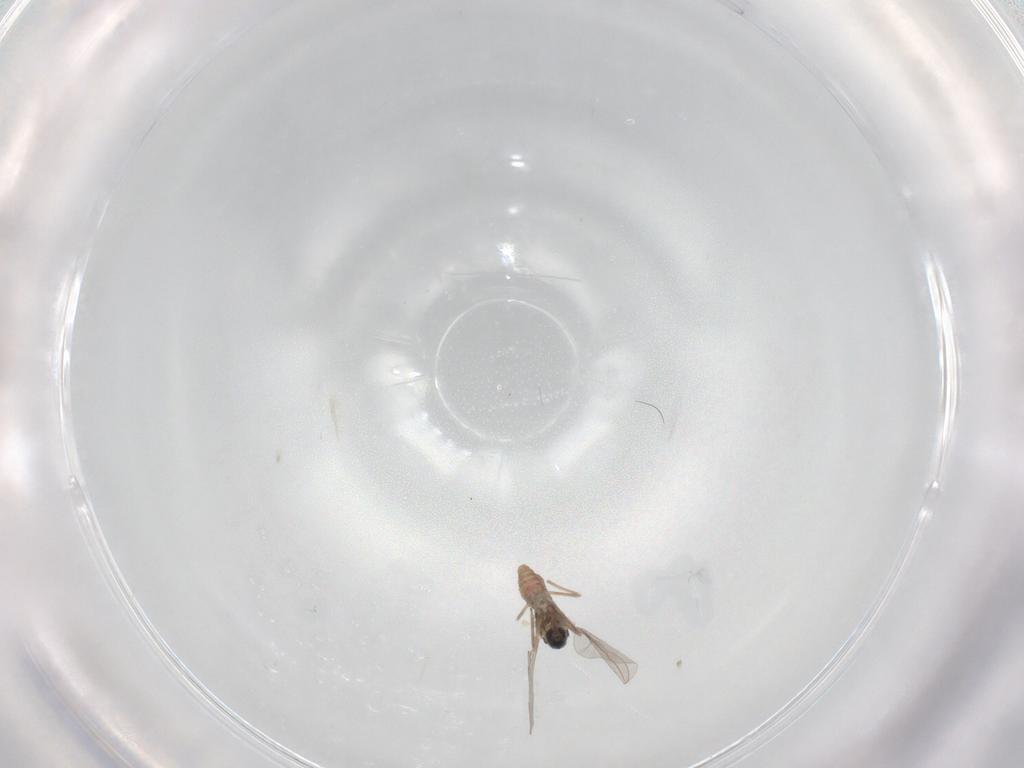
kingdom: Animalia
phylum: Arthropoda
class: Insecta
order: Diptera
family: Cecidomyiidae
